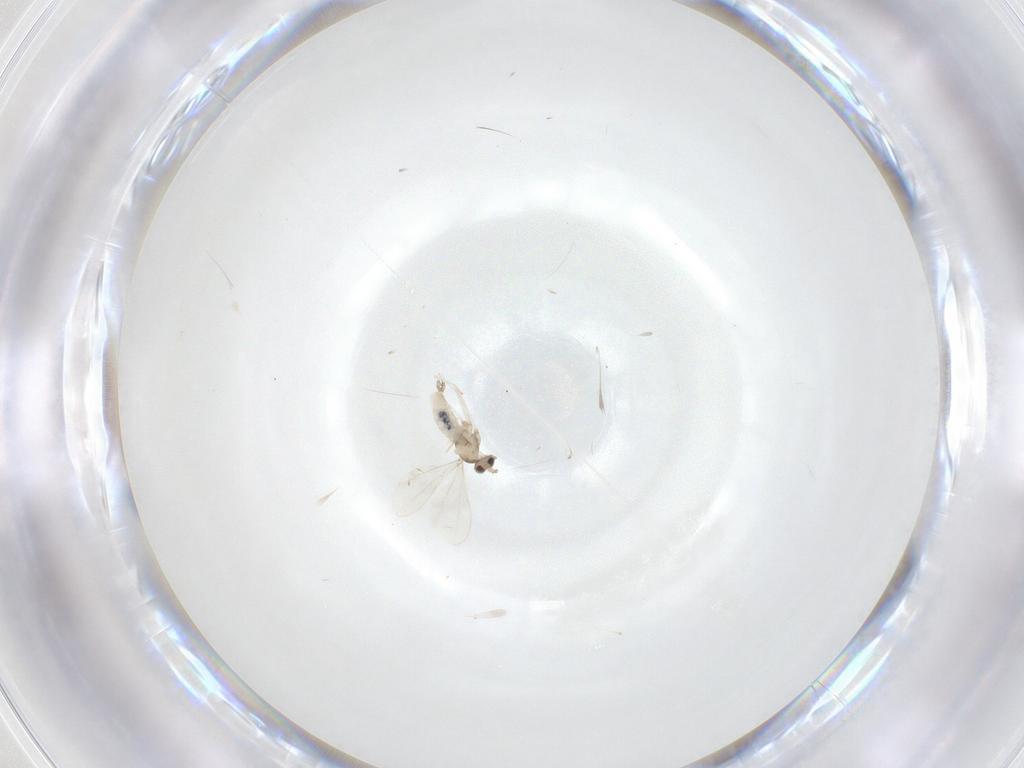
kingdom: Animalia
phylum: Arthropoda
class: Insecta
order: Diptera
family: Cecidomyiidae
